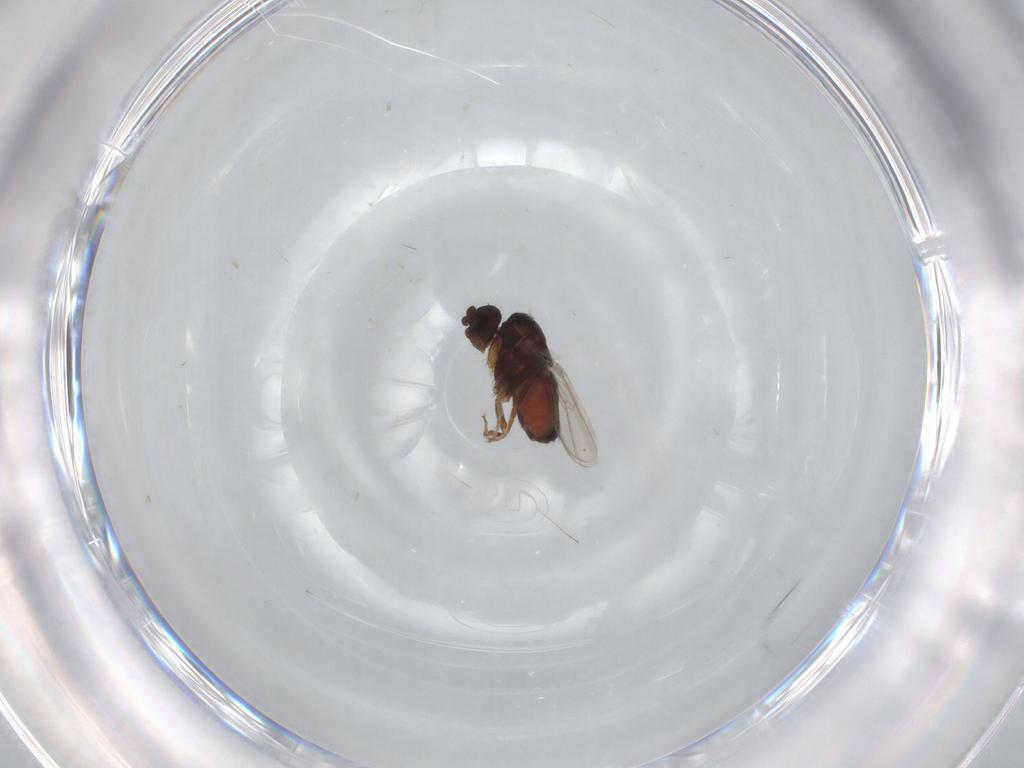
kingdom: Animalia
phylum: Arthropoda
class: Insecta
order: Diptera
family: Sphaeroceridae
